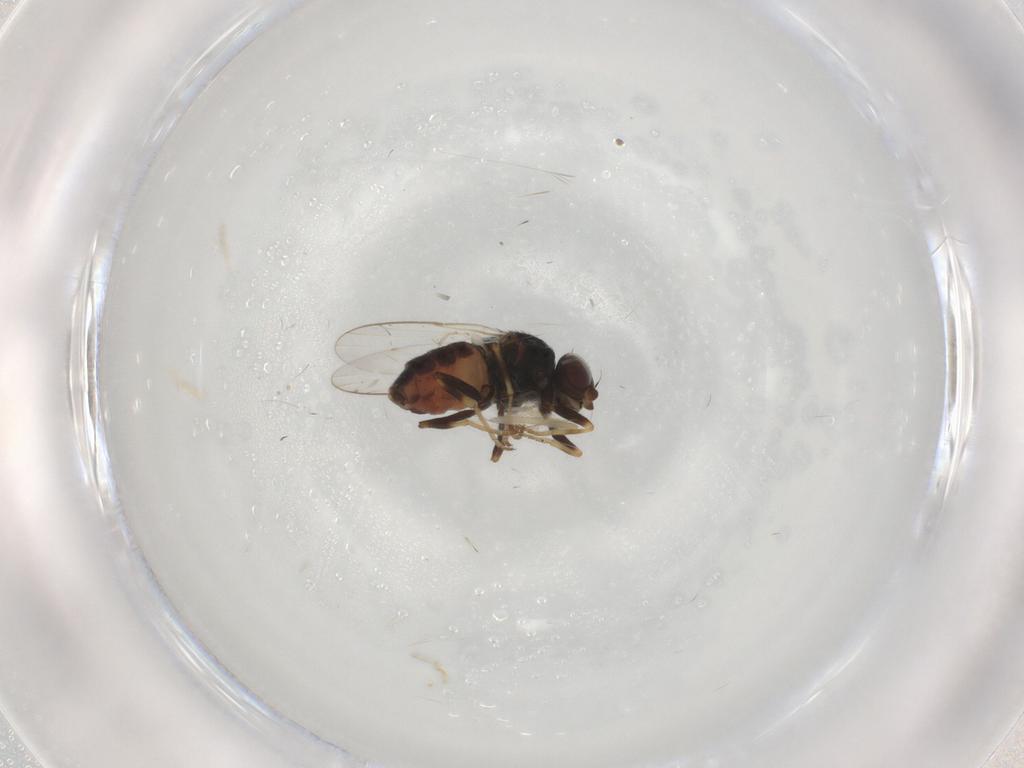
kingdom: Animalia
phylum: Arthropoda
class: Insecta
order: Diptera
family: Chloropidae
